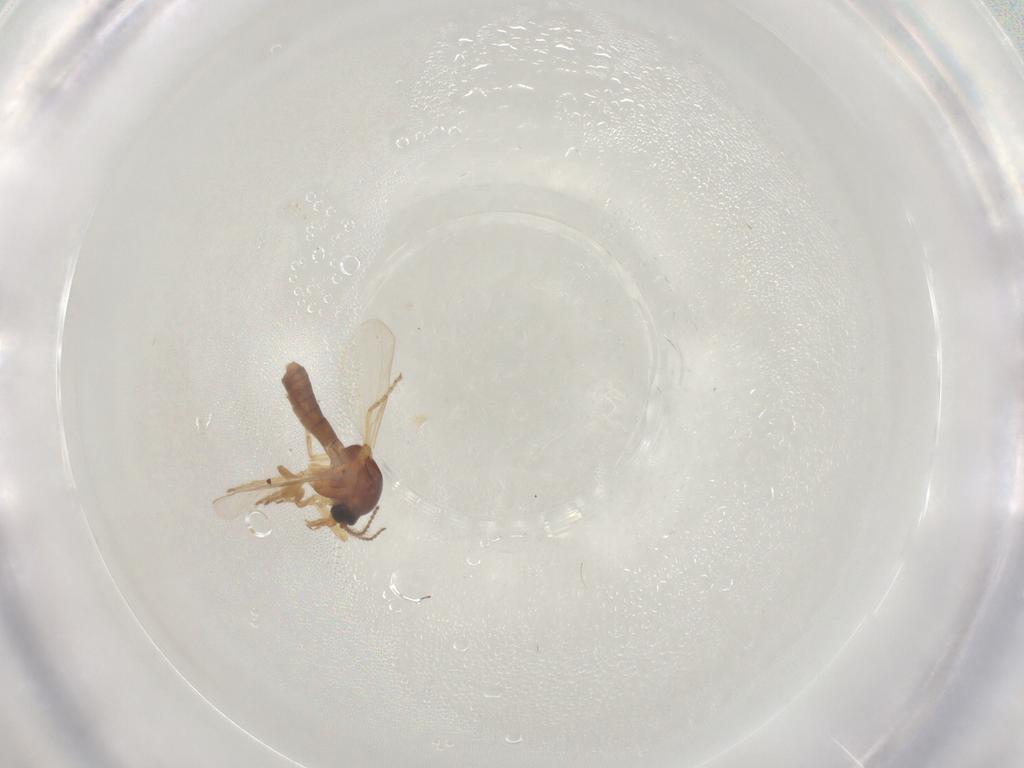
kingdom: Animalia
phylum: Arthropoda
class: Insecta
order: Diptera
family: Ceratopogonidae
